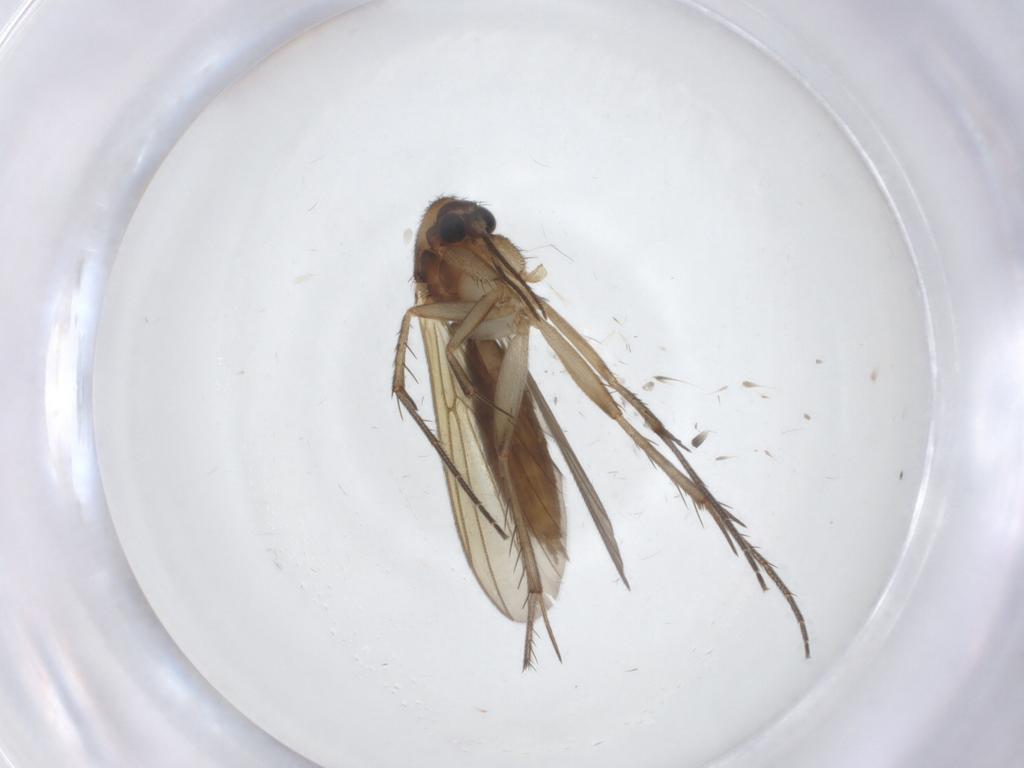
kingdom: Animalia
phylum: Arthropoda
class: Insecta
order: Diptera
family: Mycetophilidae
